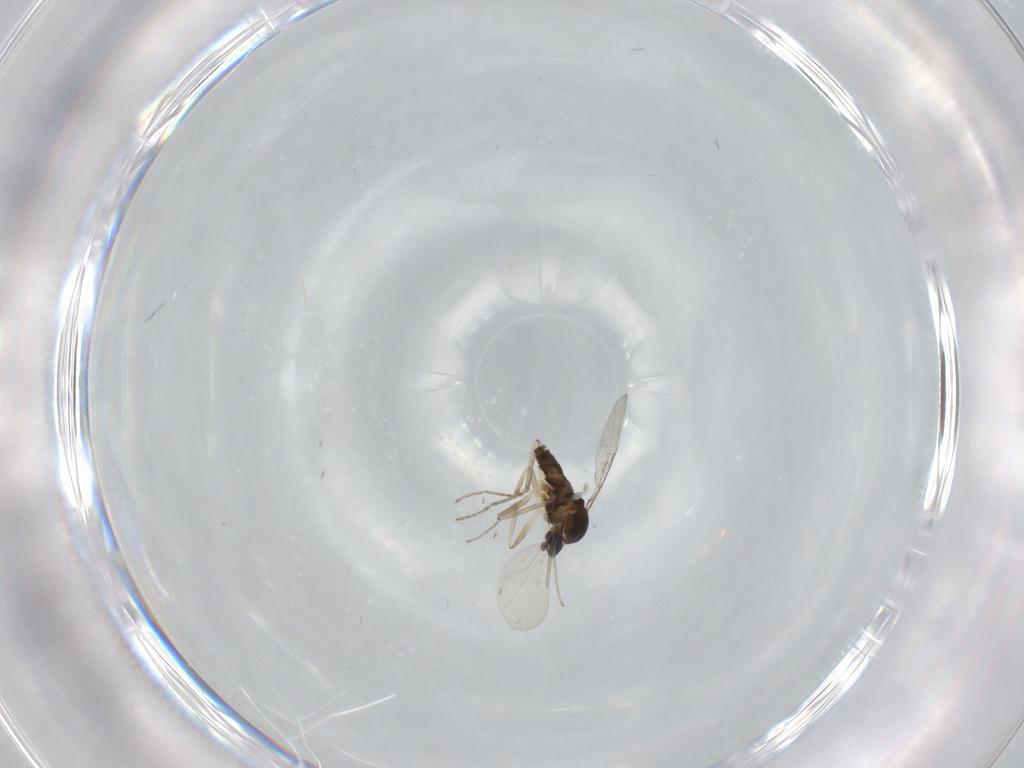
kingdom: Animalia
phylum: Arthropoda
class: Insecta
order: Diptera
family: Cecidomyiidae
